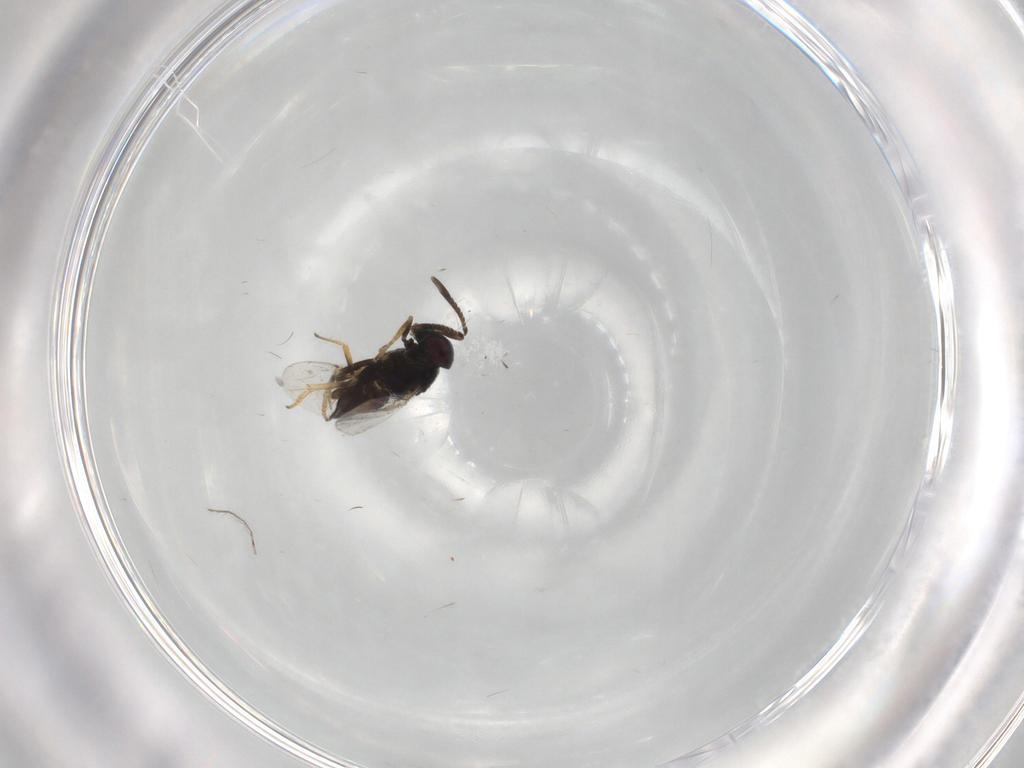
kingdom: Animalia
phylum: Arthropoda
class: Insecta
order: Hymenoptera
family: Encyrtidae
